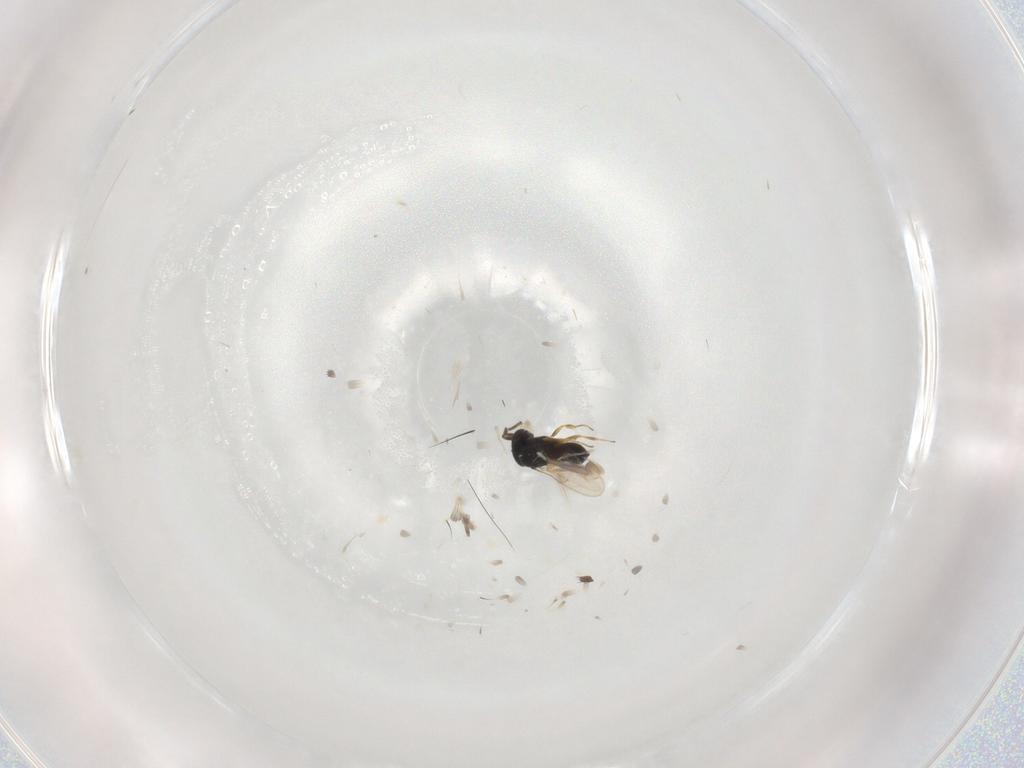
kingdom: Animalia
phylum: Arthropoda
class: Insecta
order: Hymenoptera
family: Scelionidae
